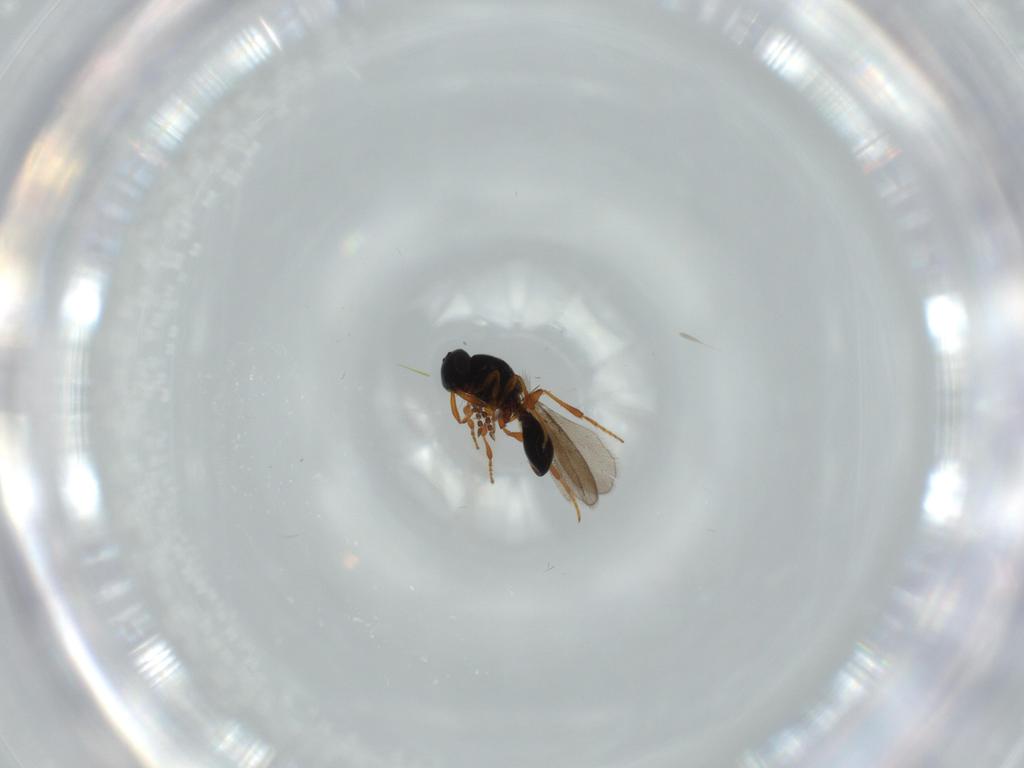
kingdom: Animalia
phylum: Arthropoda
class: Insecta
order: Hymenoptera
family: Platygastridae
